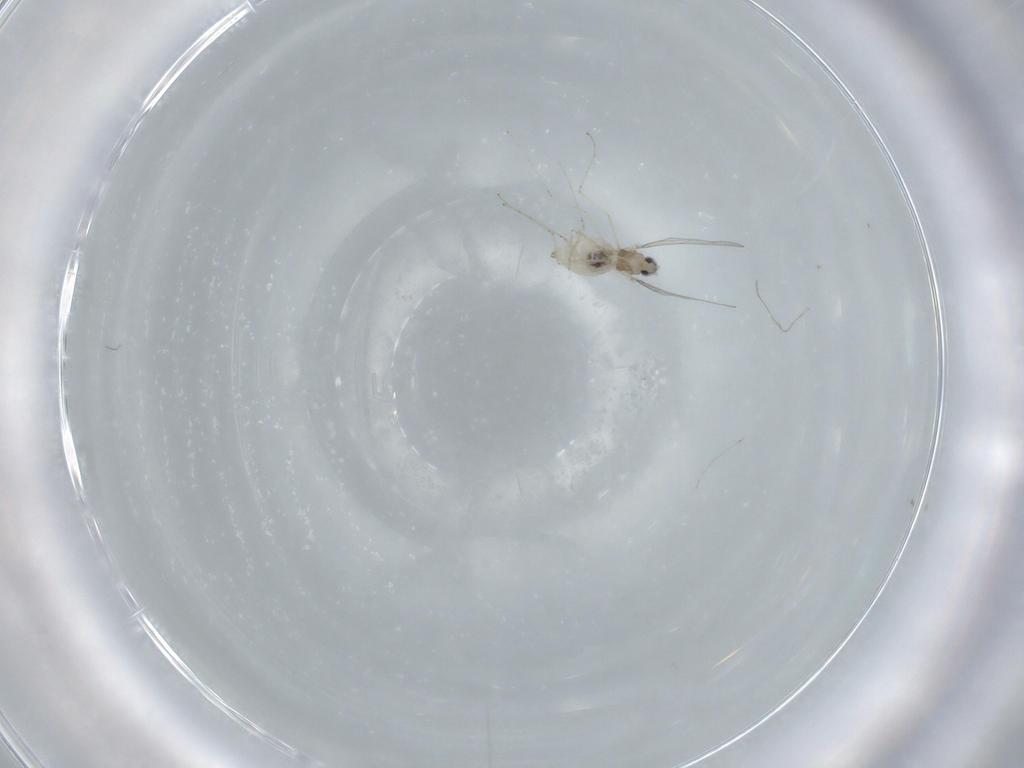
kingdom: Animalia
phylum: Arthropoda
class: Insecta
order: Diptera
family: Cecidomyiidae
